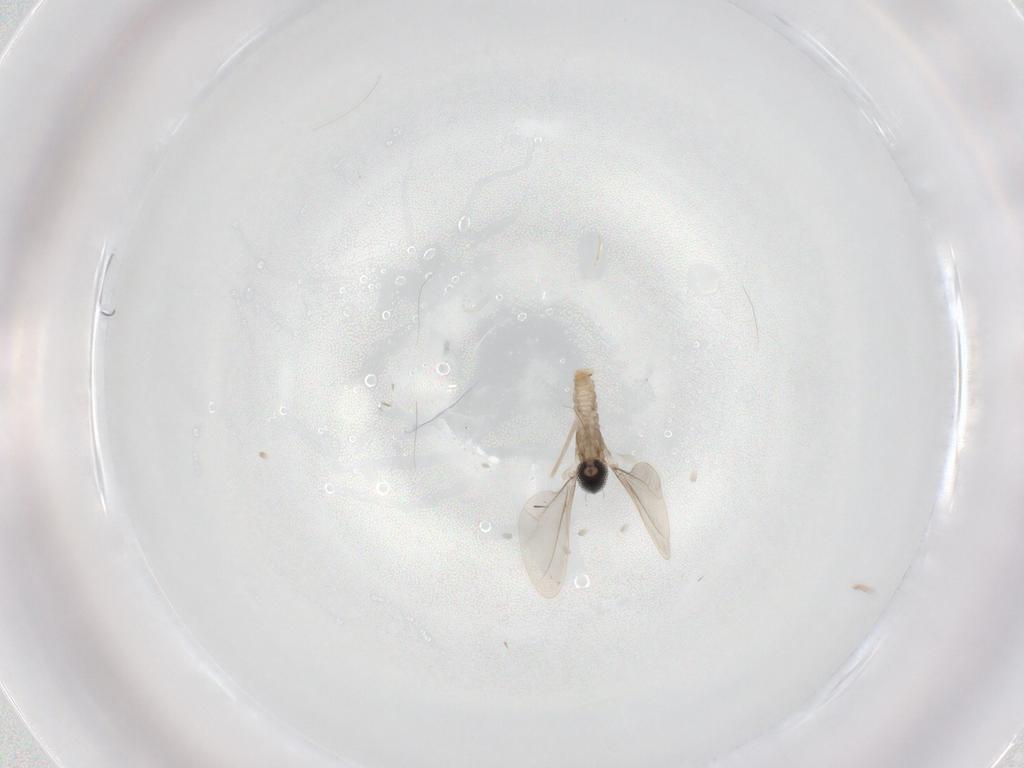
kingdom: Animalia
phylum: Arthropoda
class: Insecta
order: Diptera
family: Cecidomyiidae
